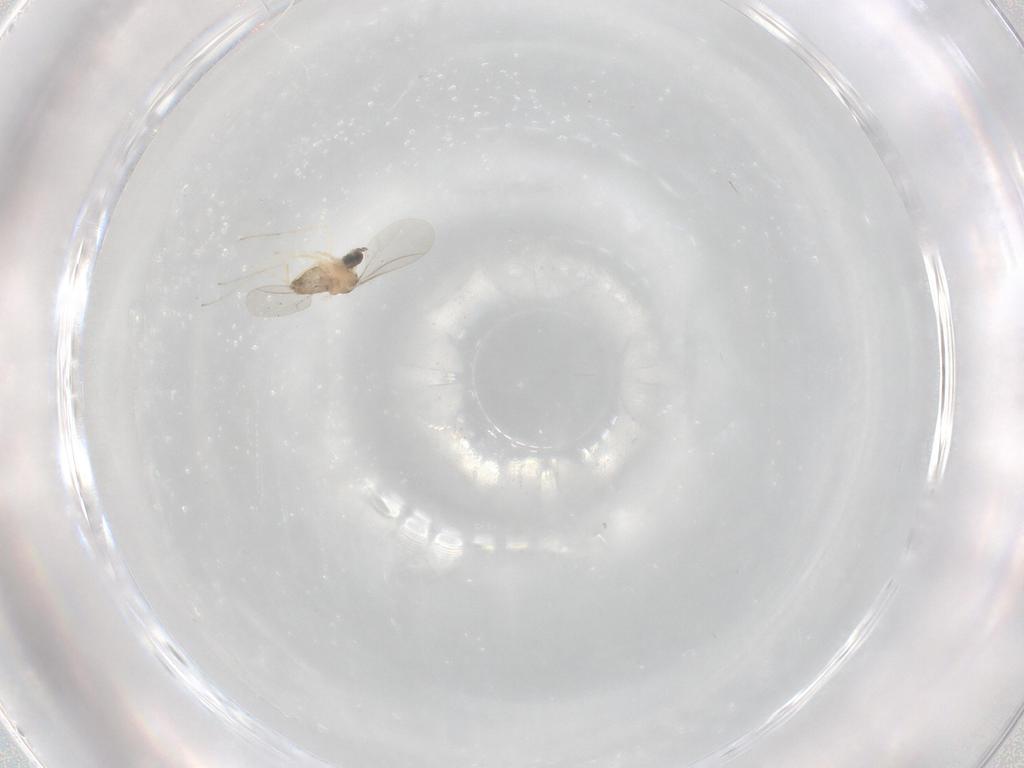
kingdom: Animalia
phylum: Arthropoda
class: Insecta
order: Diptera
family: Cecidomyiidae
